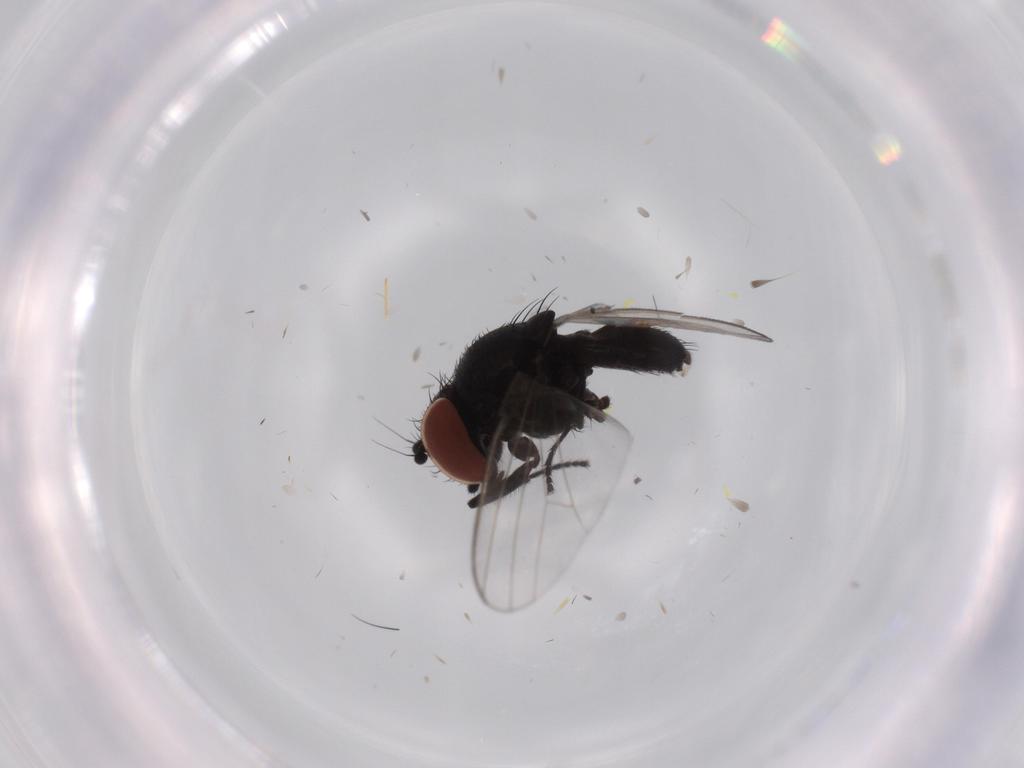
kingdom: Animalia
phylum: Arthropoda
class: Insecta
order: Diptera
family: Milichiidae
